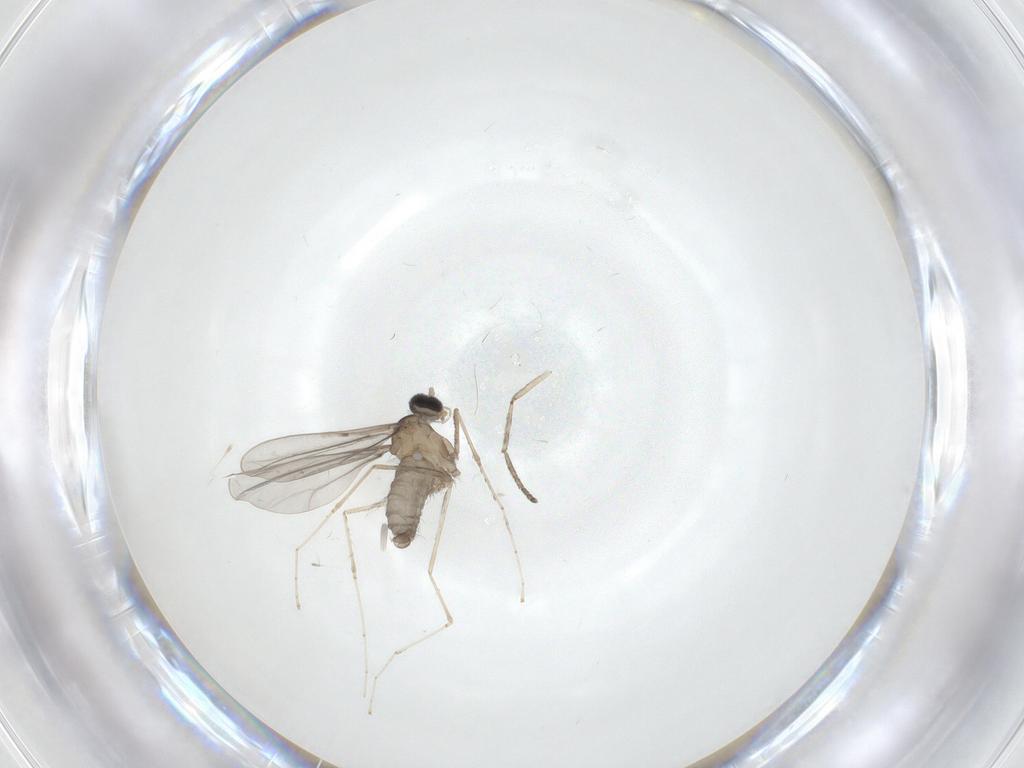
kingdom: Animalia
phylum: Arthropoda
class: Insecta
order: Diptera
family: Cecidomyiidae
